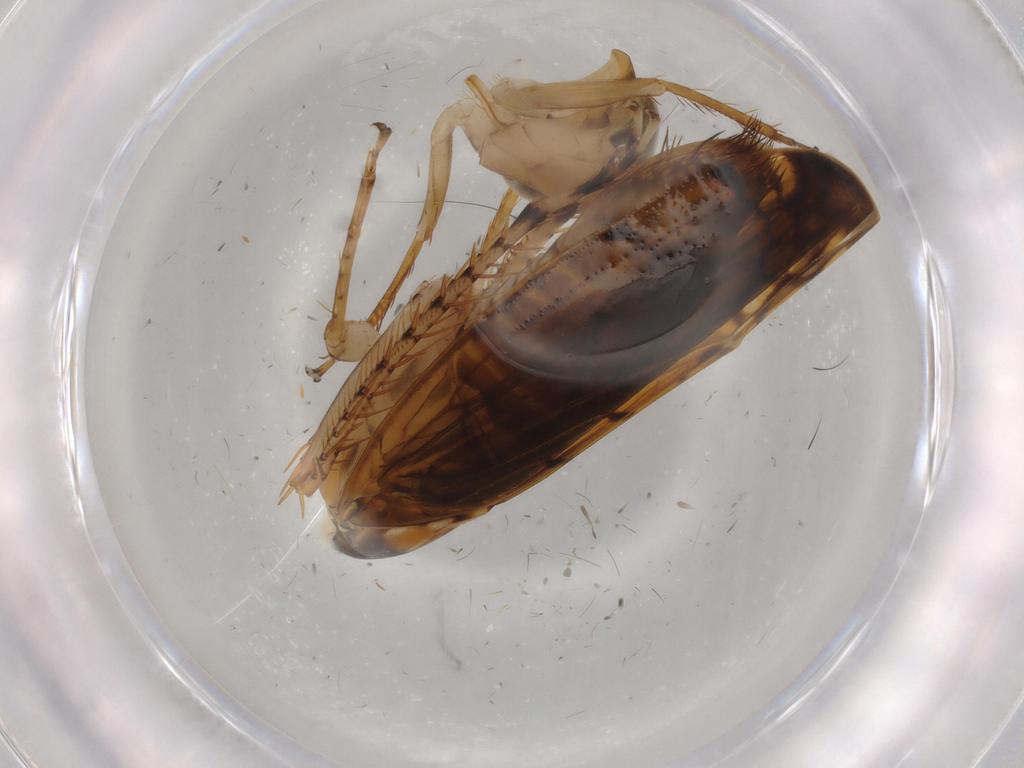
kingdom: Animalia
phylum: Arthropoda
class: Insecta
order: Hemiptera
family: Cicadellidae
